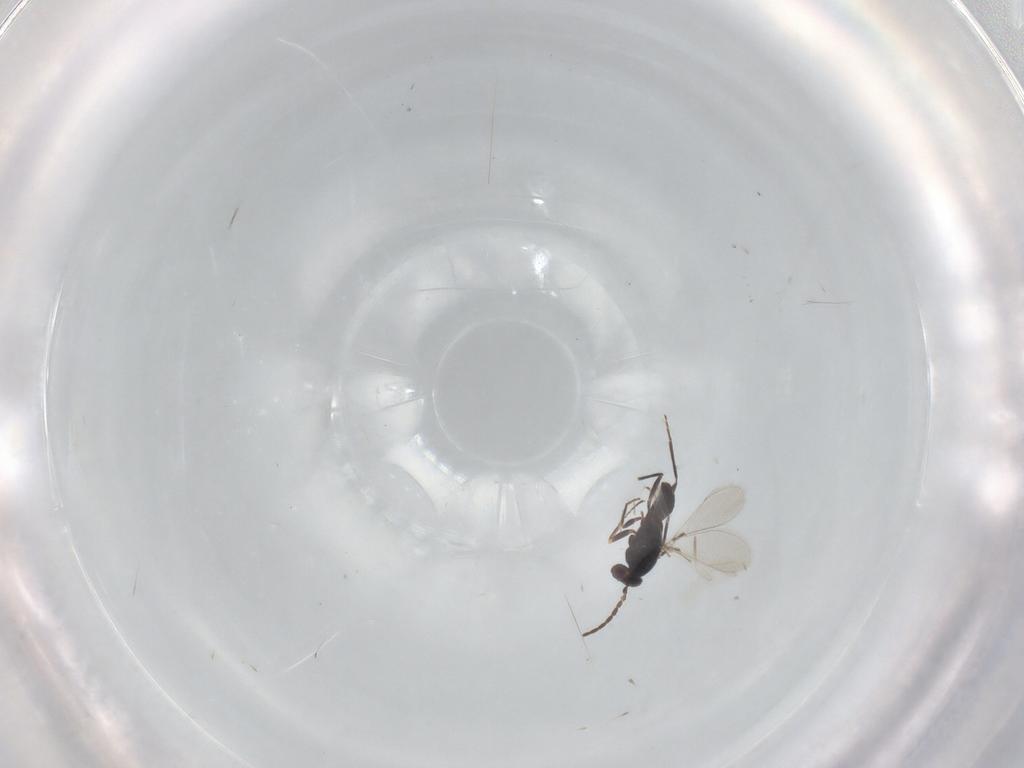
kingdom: Animalia
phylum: Arthropoda
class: Insecta
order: Hymenoptera
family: Mymaridae
